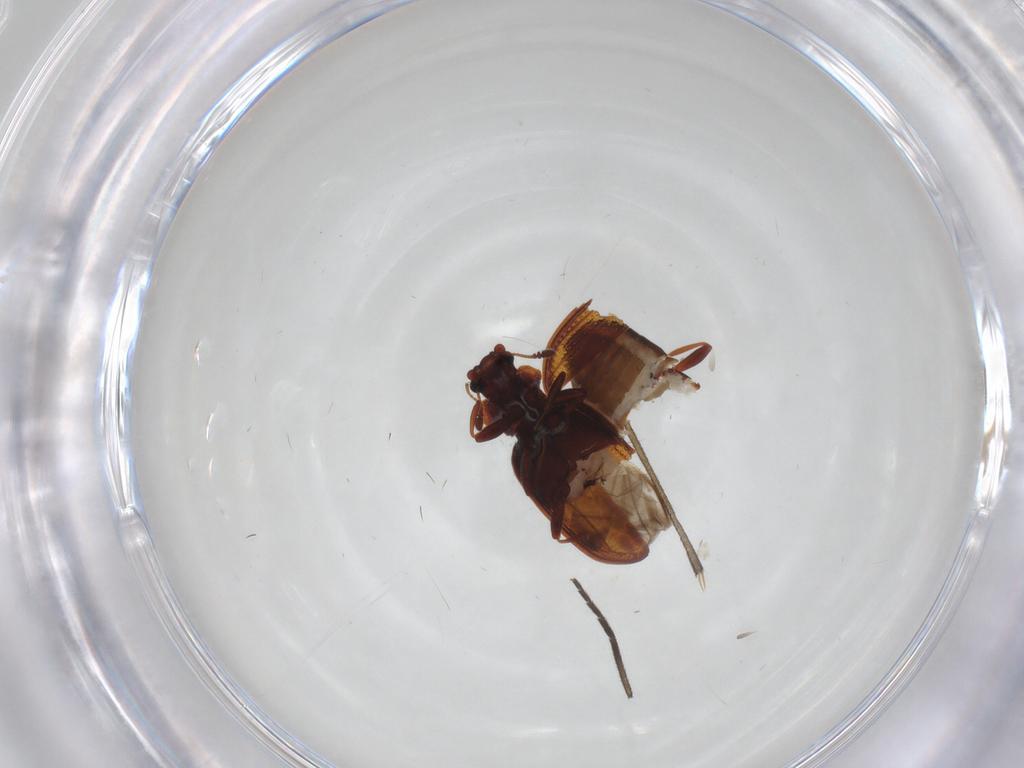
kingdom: Animalia
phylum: Arthropoda
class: Insecta
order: Coleoptera
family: Latridiidae
